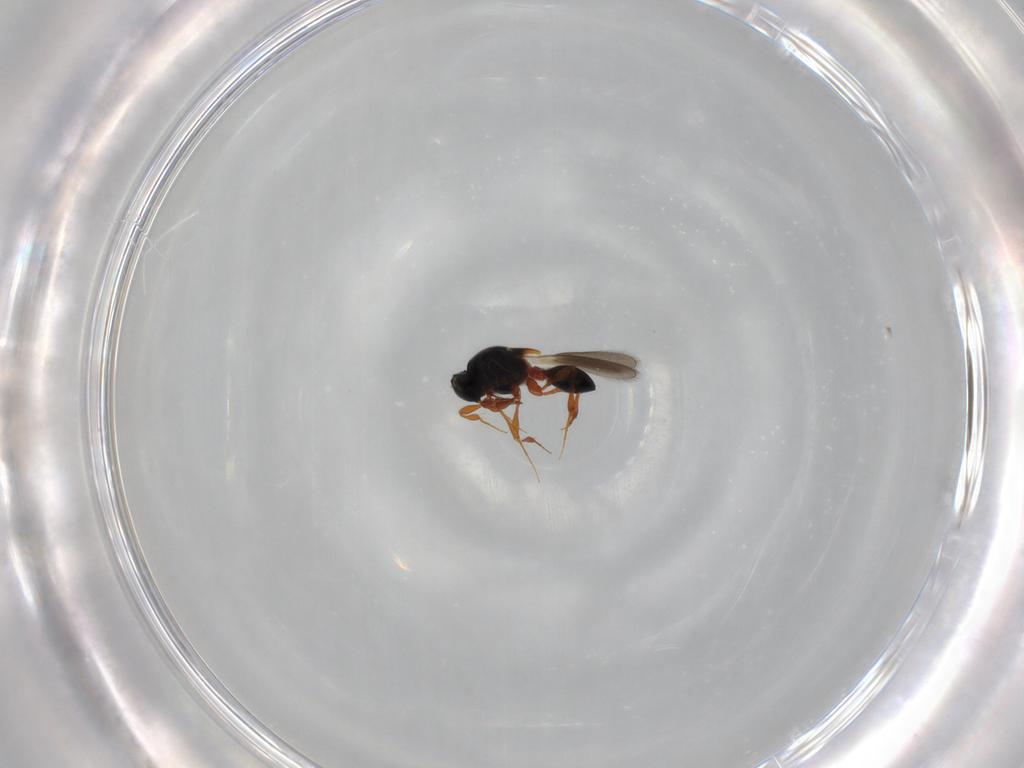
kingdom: Animalia
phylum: Arthropoda
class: Insecta
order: Hymenoptera
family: Platygastridae
